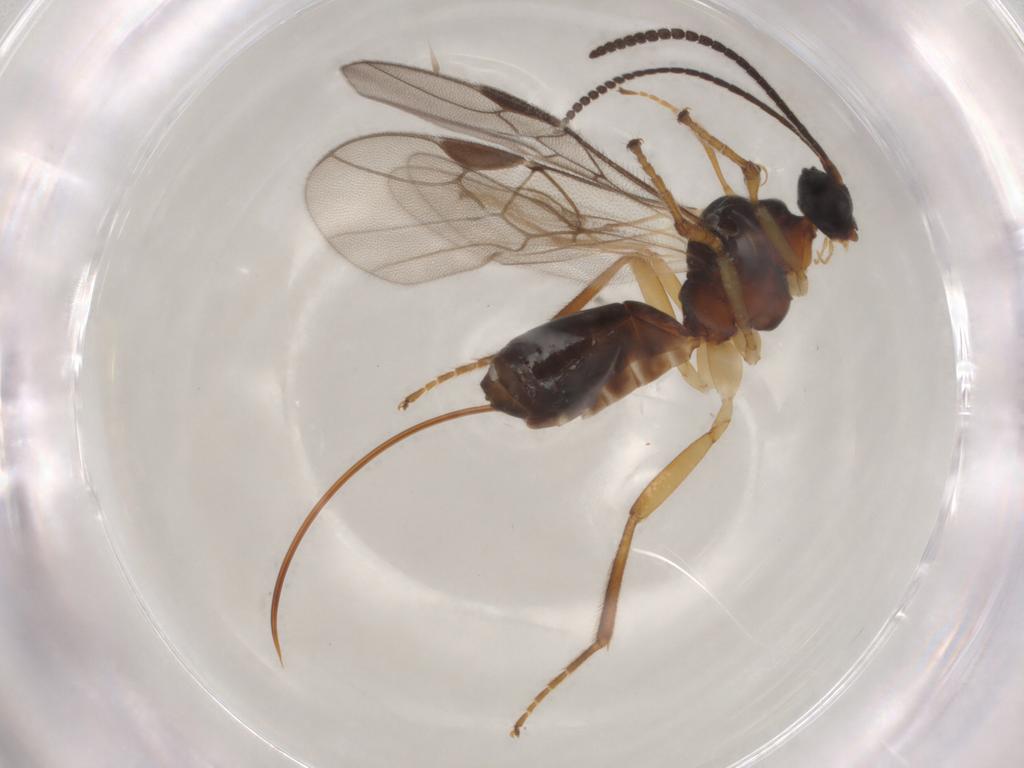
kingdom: Animalia
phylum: Arthropoda
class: Insecta
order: Hymenoptera
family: Braconidae
